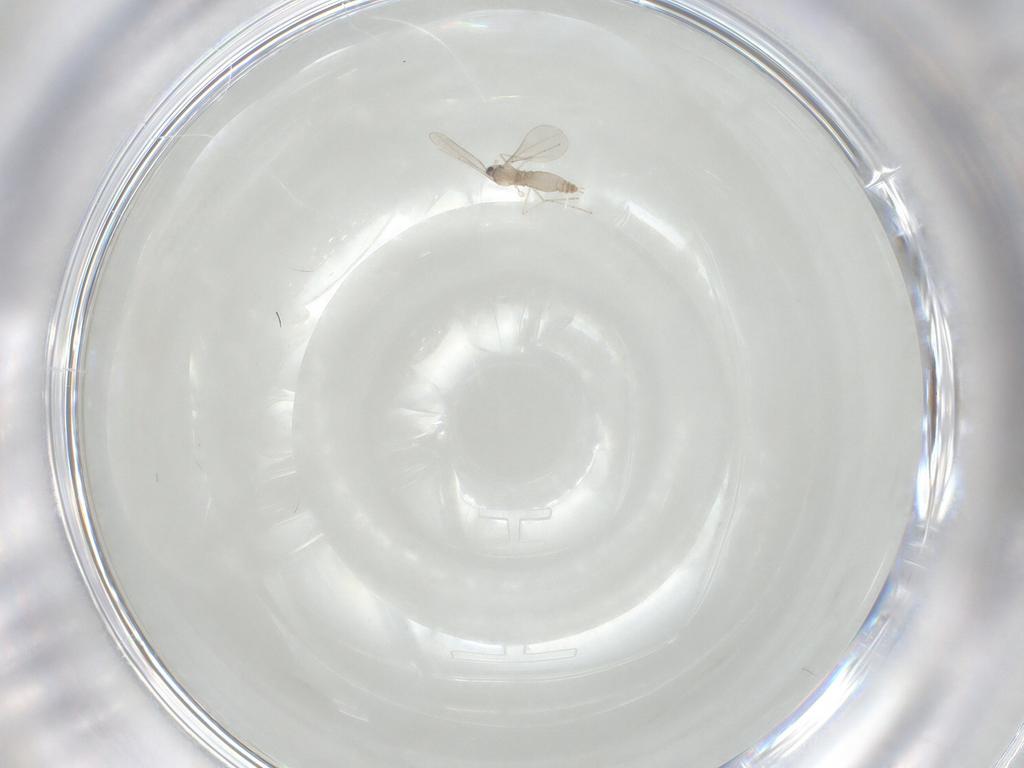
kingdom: Animalia
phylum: Arthropoda
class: Insecta
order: Diptera
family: Cecidomyiidae
